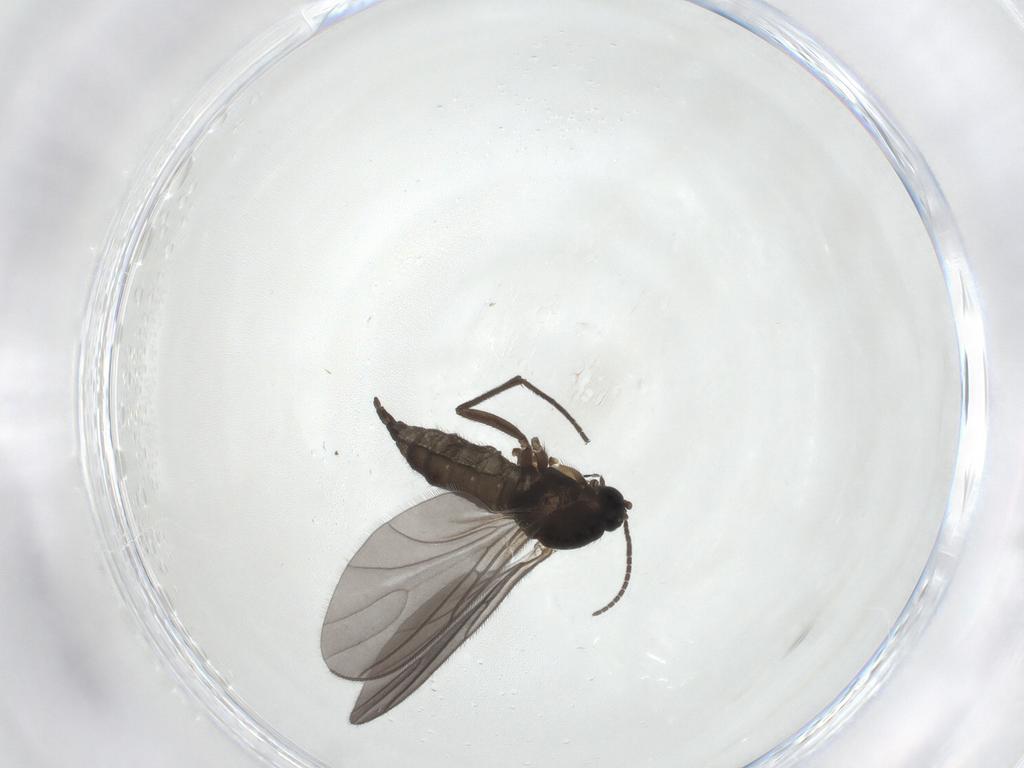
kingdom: Animalia
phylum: Arthropoda
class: Insecta
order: Diptera
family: Sciaridae
